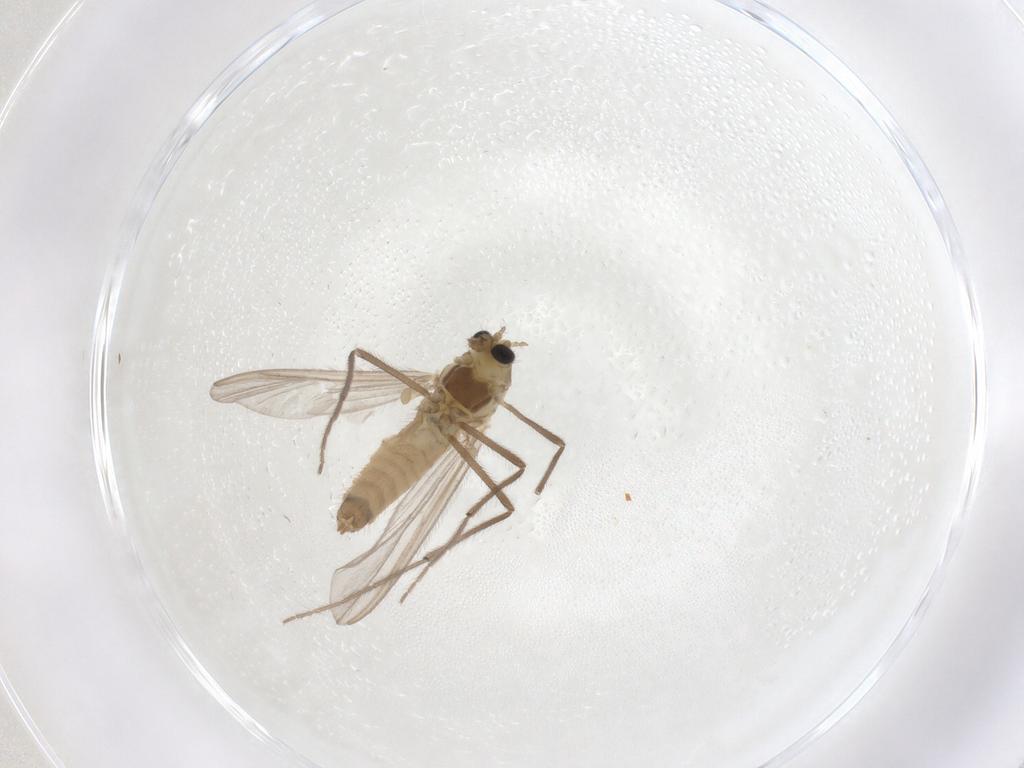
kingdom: Animalia
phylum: Arthropoda
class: Insecta
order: Diptera
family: Chironomidae
